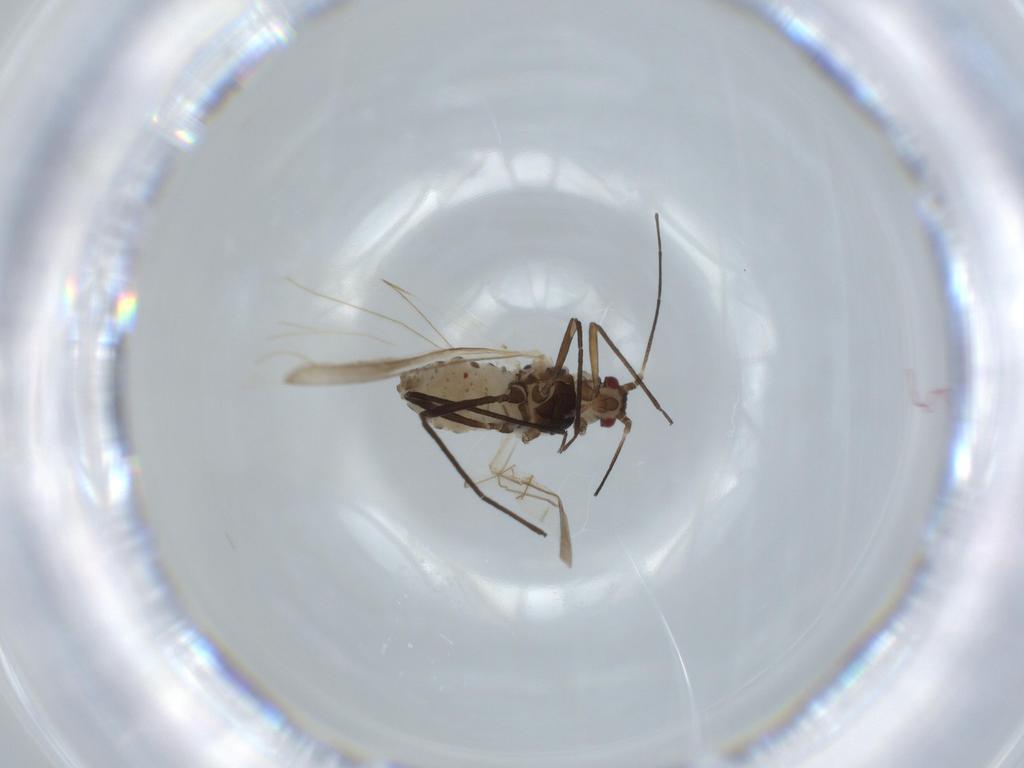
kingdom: Animalia
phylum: Arthropoda
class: Insecta
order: Hemiptera
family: Aphididae
